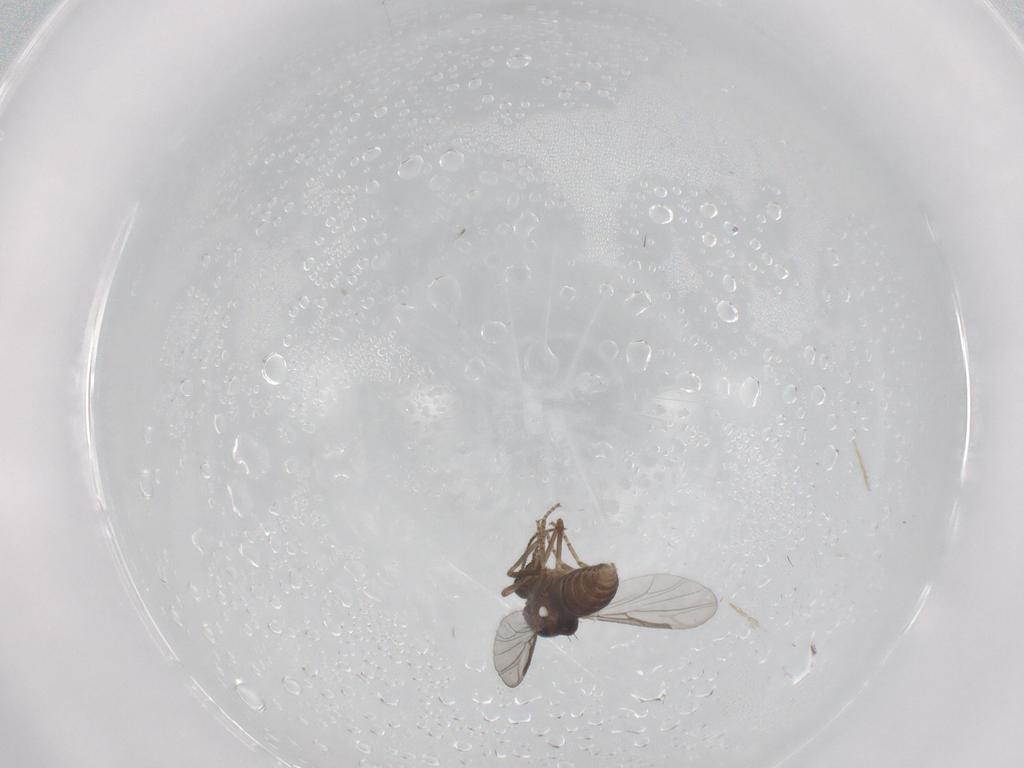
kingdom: Animalia
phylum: Arthropoda
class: Insecta
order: Diptera
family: Ceratopogonidae
